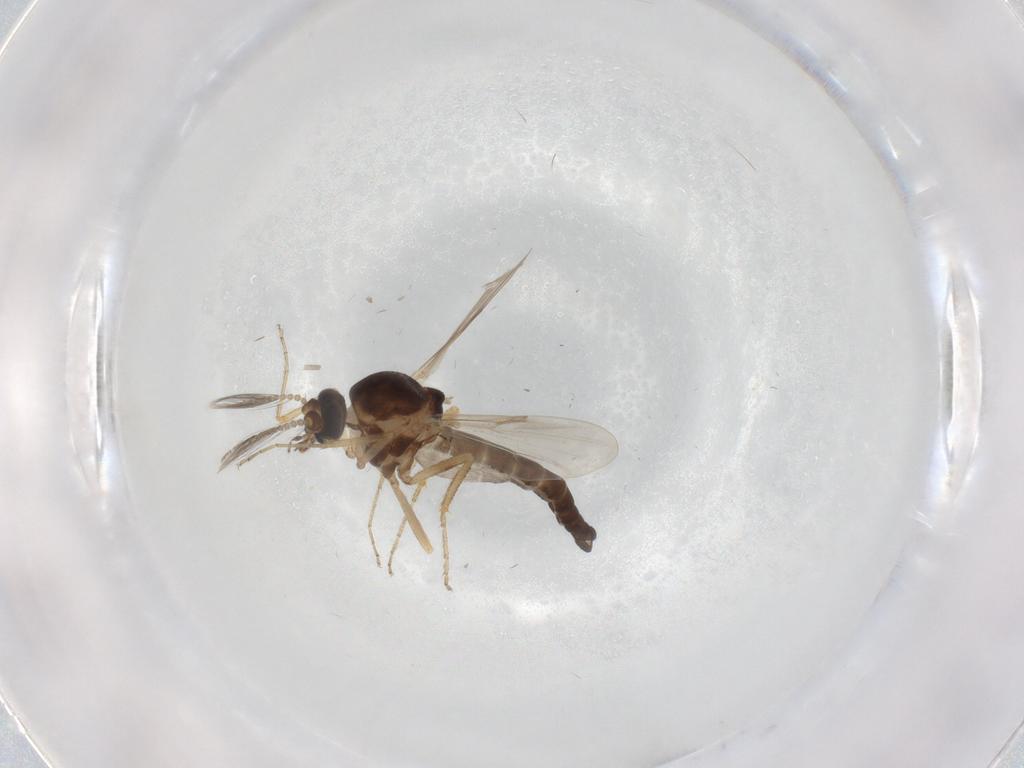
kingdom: Animalia
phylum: Arthropoda
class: Insecta
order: Diptera
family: Ceratopogonidae
